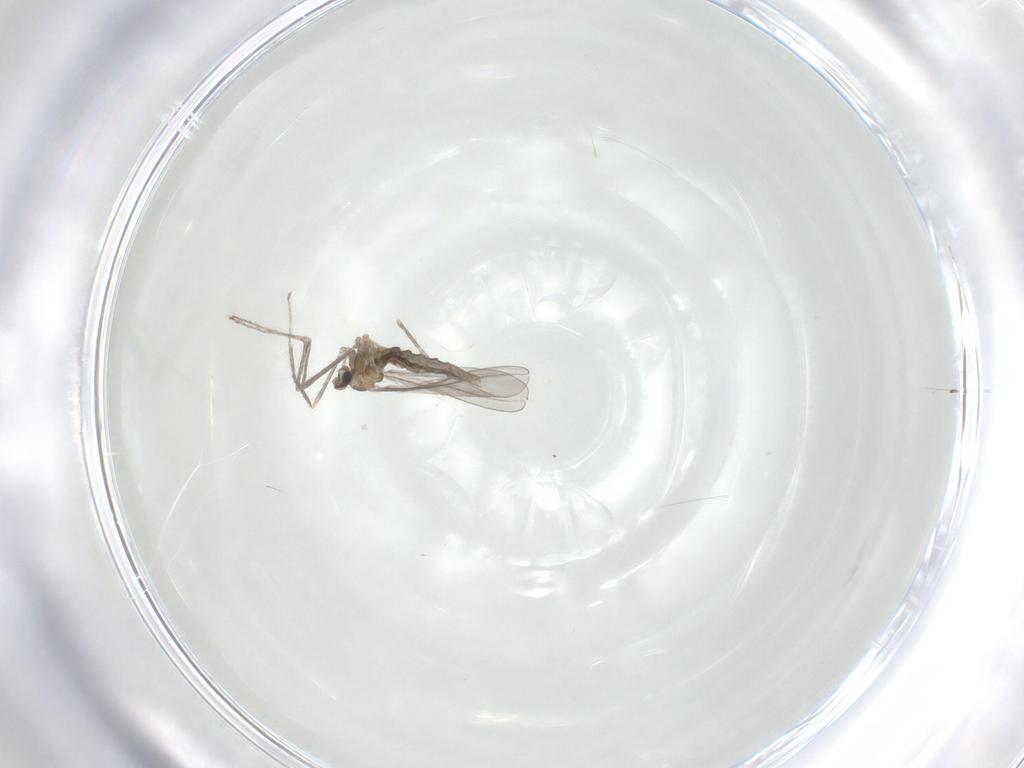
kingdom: Animalia
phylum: Arthropoda
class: Insecta
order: Diptera
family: Cecidomyiidae
